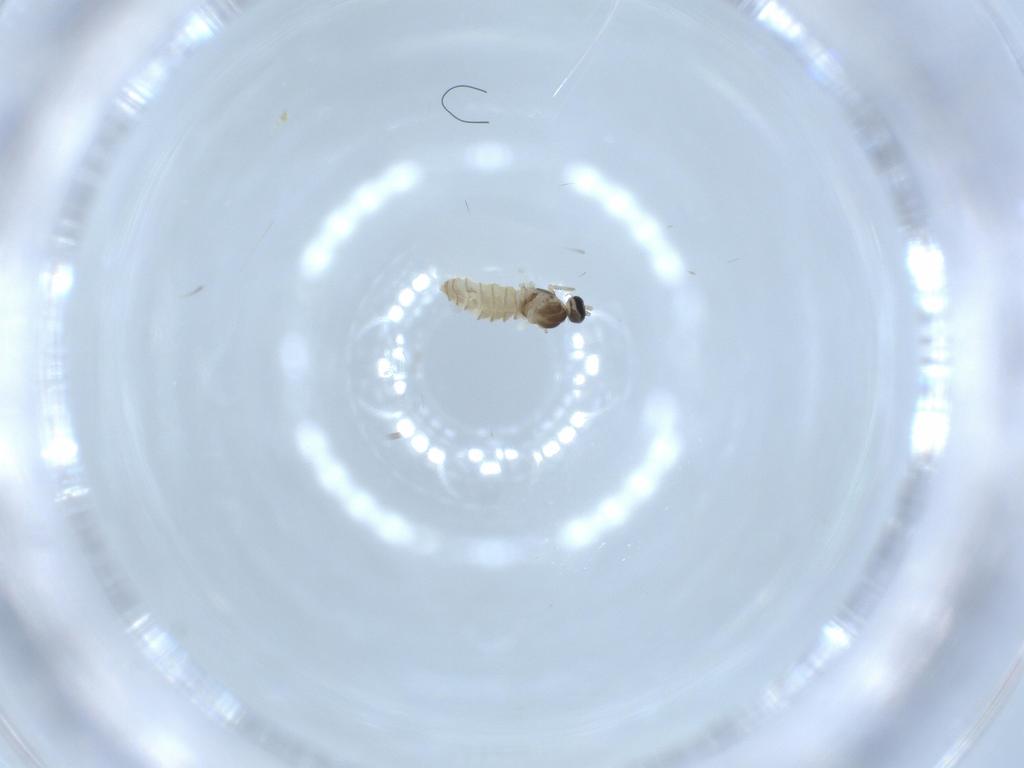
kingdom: Animalia
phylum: Arthropoda
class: Insecta
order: Diptera
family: Cecidomyiidae
